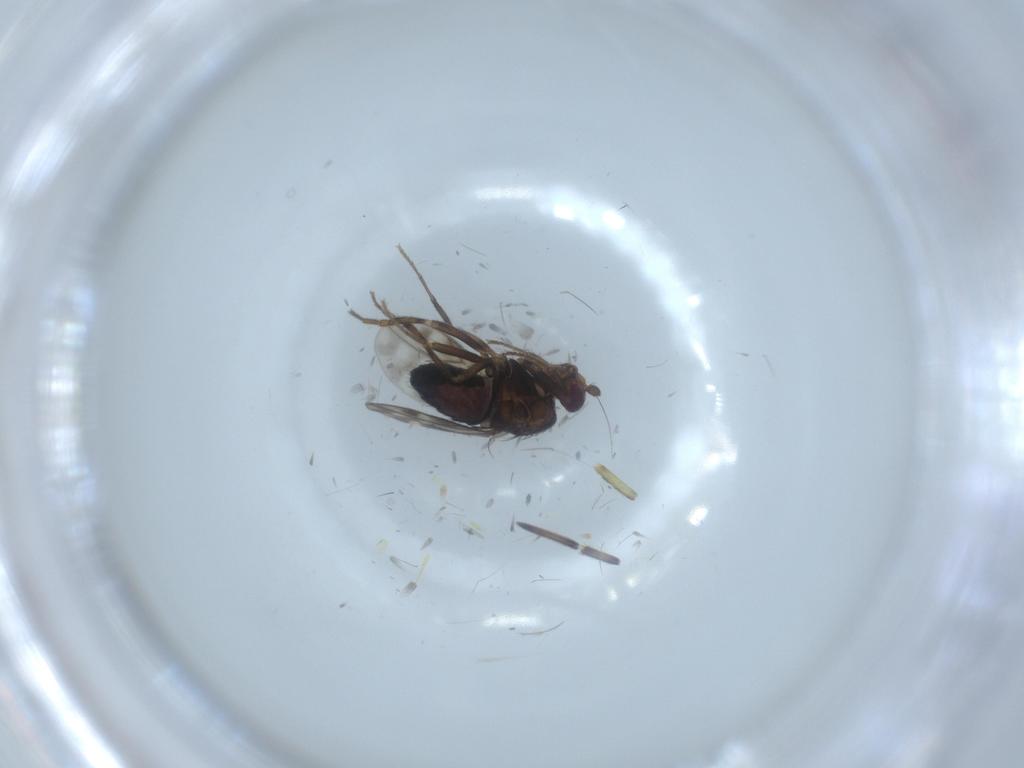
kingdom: Animalia
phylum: Arthropoda
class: Insecta
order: Diptera
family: Sphaeroceridae
